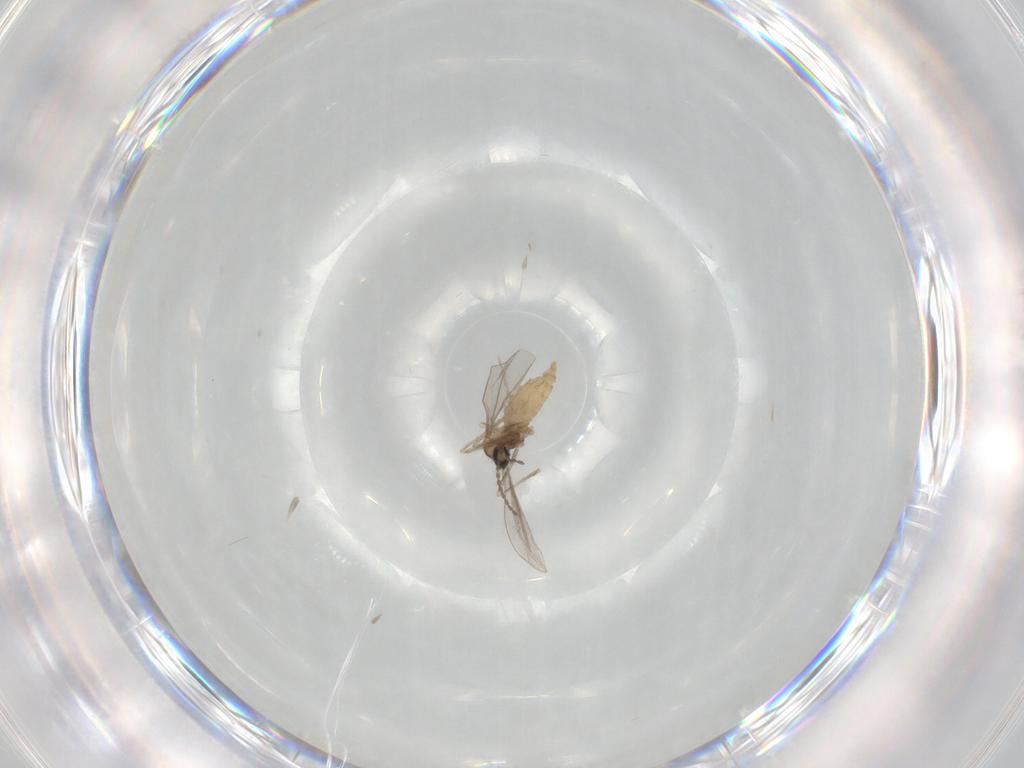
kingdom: Animalia
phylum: Arthropoda
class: Insecta
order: Diptera
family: Cecidomyiidae
